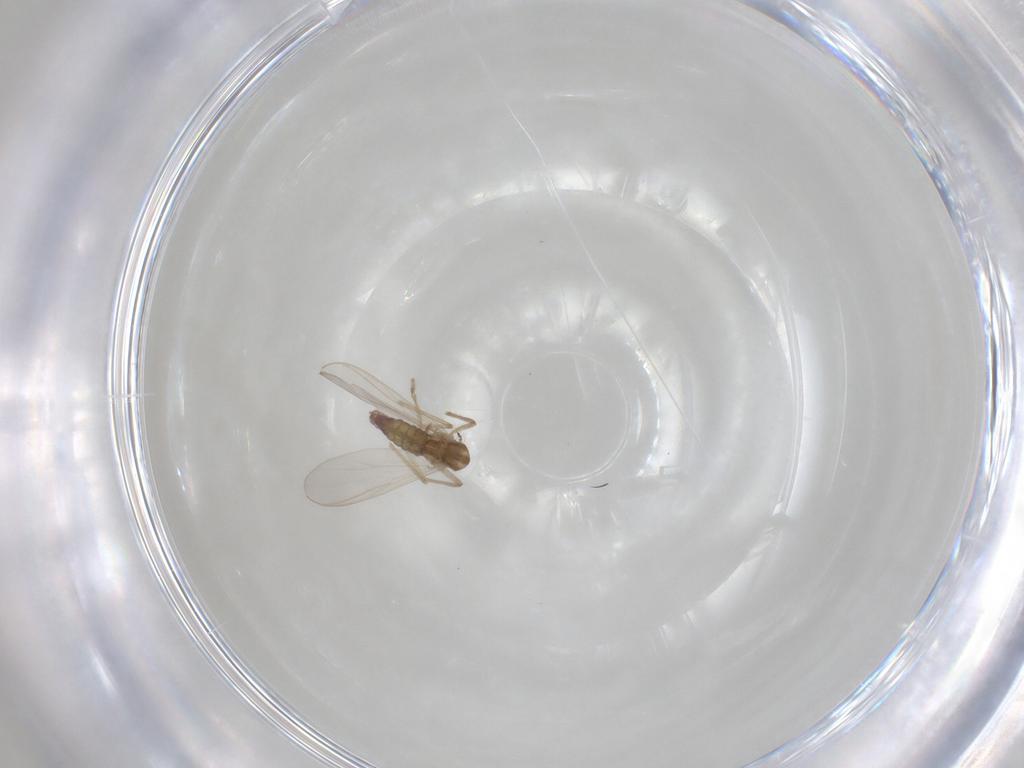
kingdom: Animalia
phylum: Arthropoda
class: Insecta
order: Diptera
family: Chironomidae
